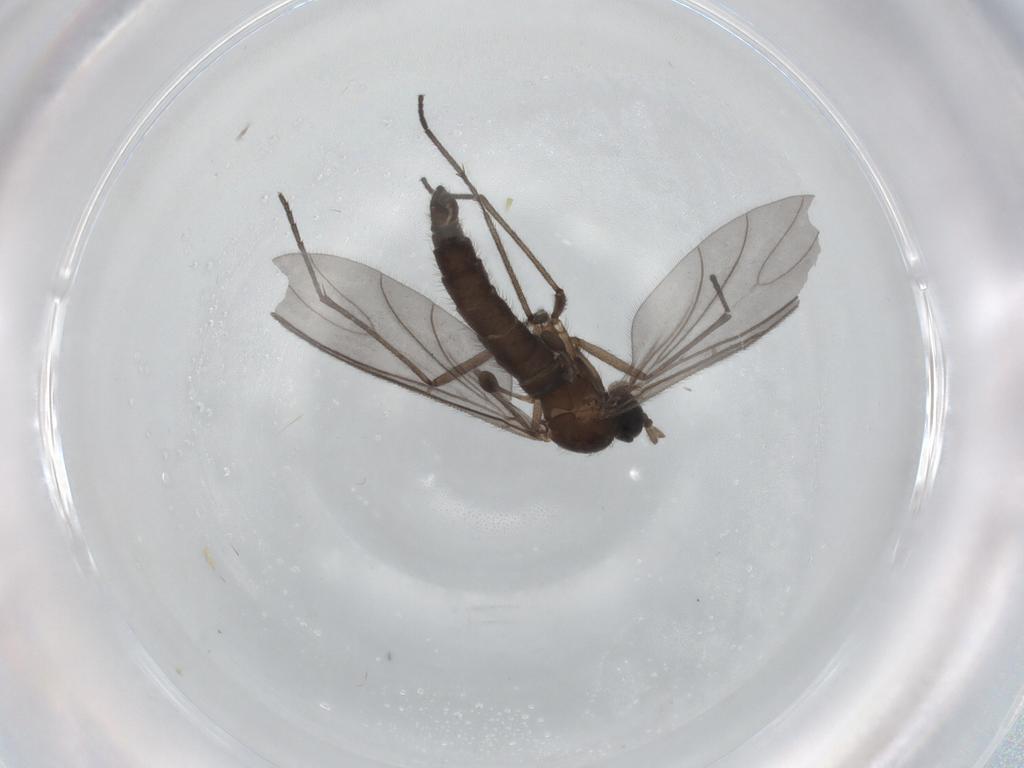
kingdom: Animalia
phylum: Arthropoda
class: Insecta
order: Diptera
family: Sciaridae
